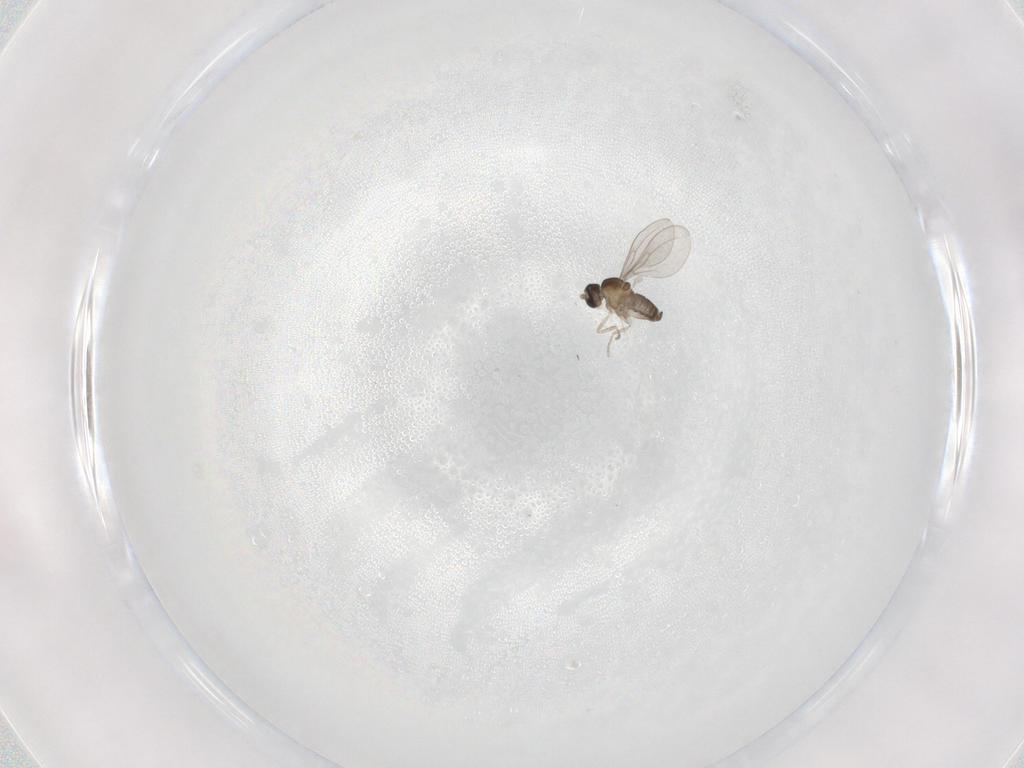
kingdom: Animalia
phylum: Arthropoda
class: Insecta
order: Diptera
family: Cecidomyiidae
